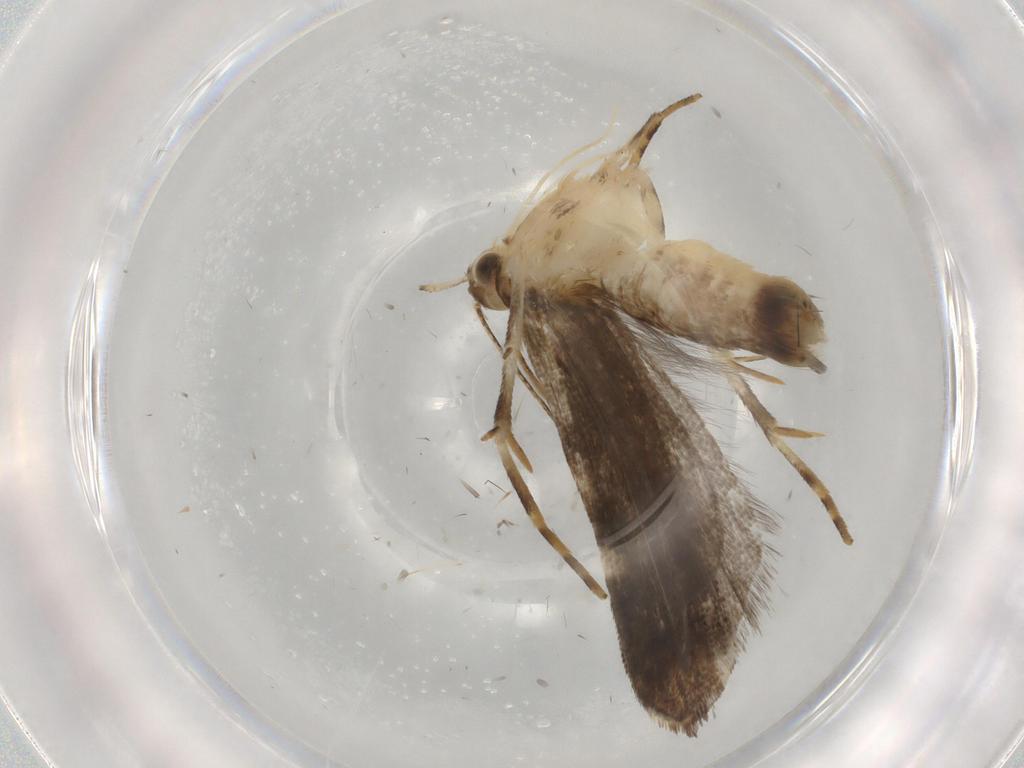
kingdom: Animalia
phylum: Arthropoda
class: Insecta
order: Lepidoptera
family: Blastobasidae
